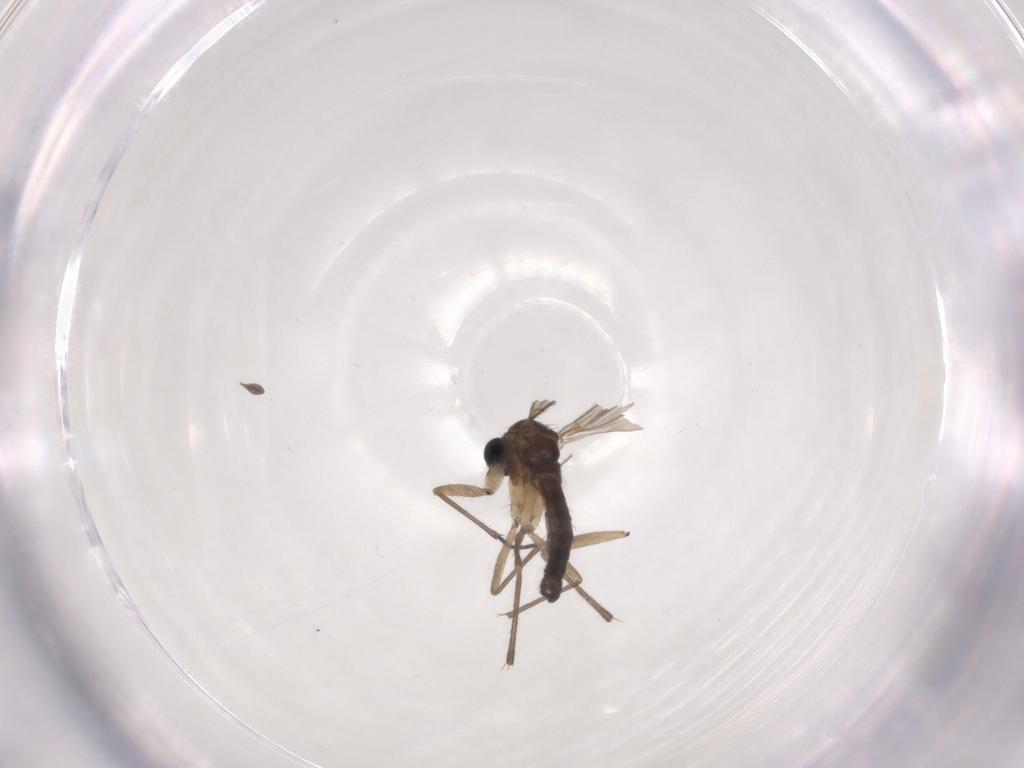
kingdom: Animalia
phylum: Arthropoda
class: Insecta
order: Diptera
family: Sciaridae
